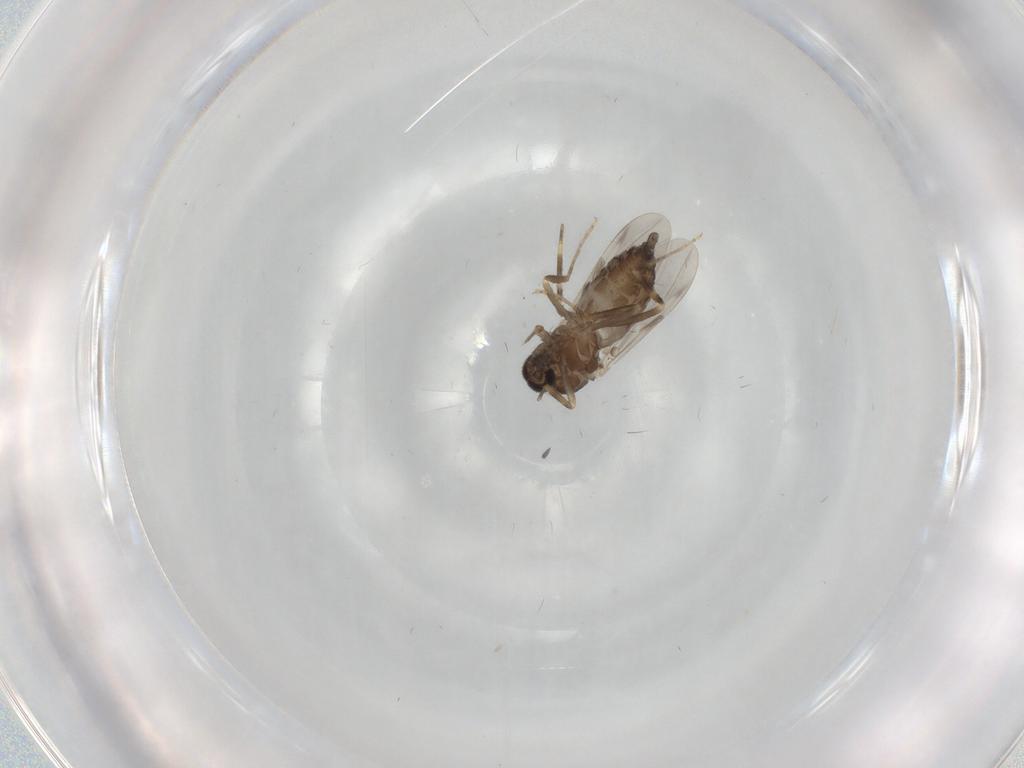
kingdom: Animalia
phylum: Arthropoda
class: Insecta
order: Diptera
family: Ceratopogonidae
